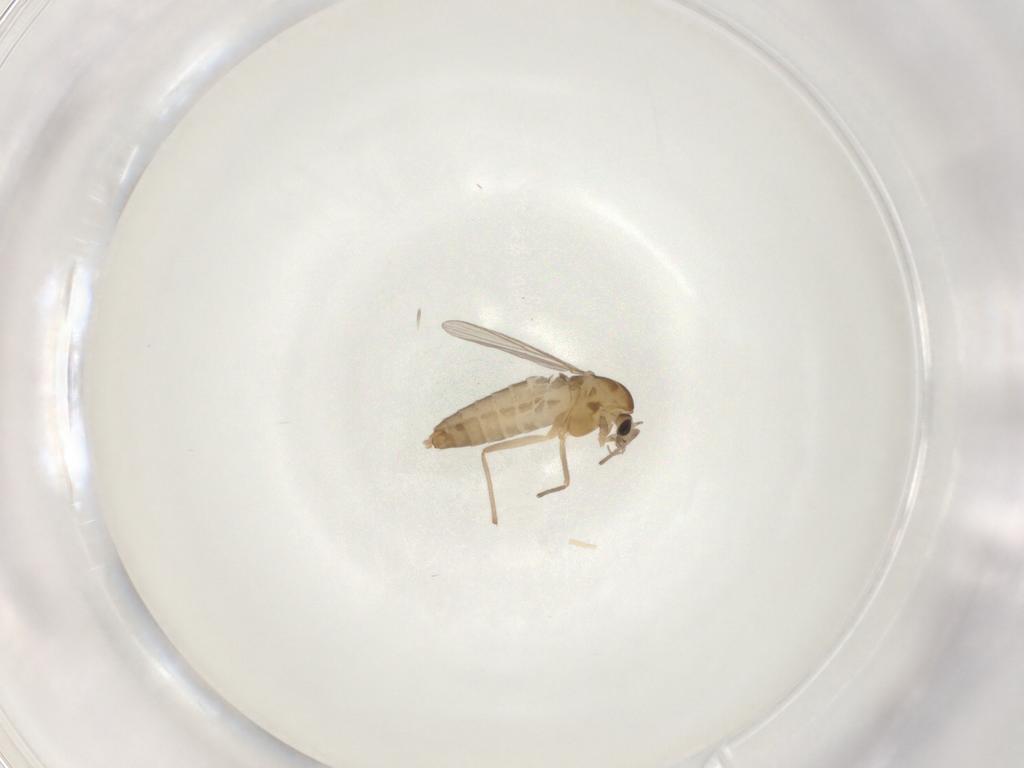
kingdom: Animalia
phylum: Arthropoda
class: Insecta
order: Diptera
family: Chironomidae
